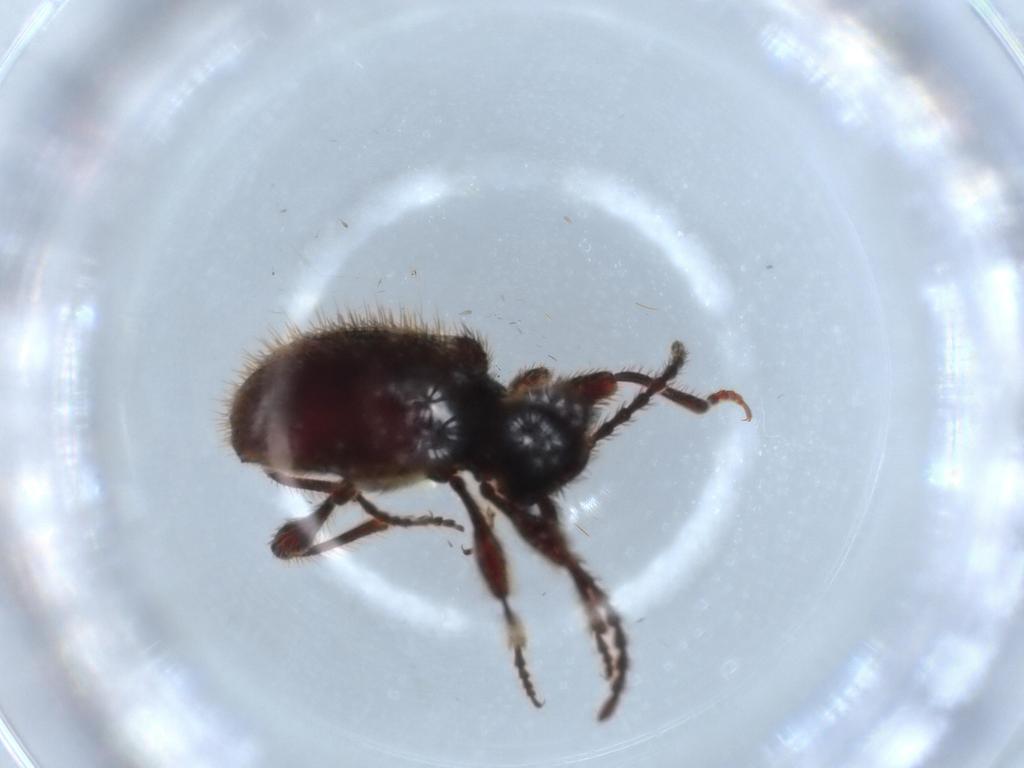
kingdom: Animalia
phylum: Arthropoda
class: Insecta
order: Coleoptera
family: Ptinidae
